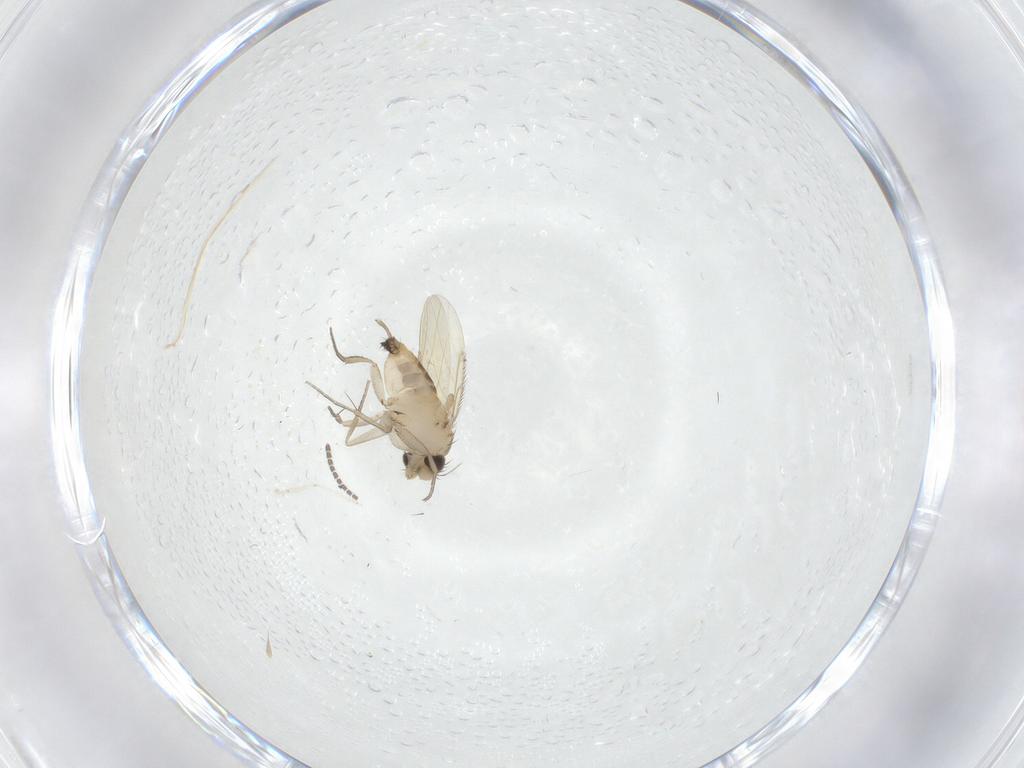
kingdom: Animalia
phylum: Arthropoda
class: Insecta
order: Diptera
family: Phoridae
